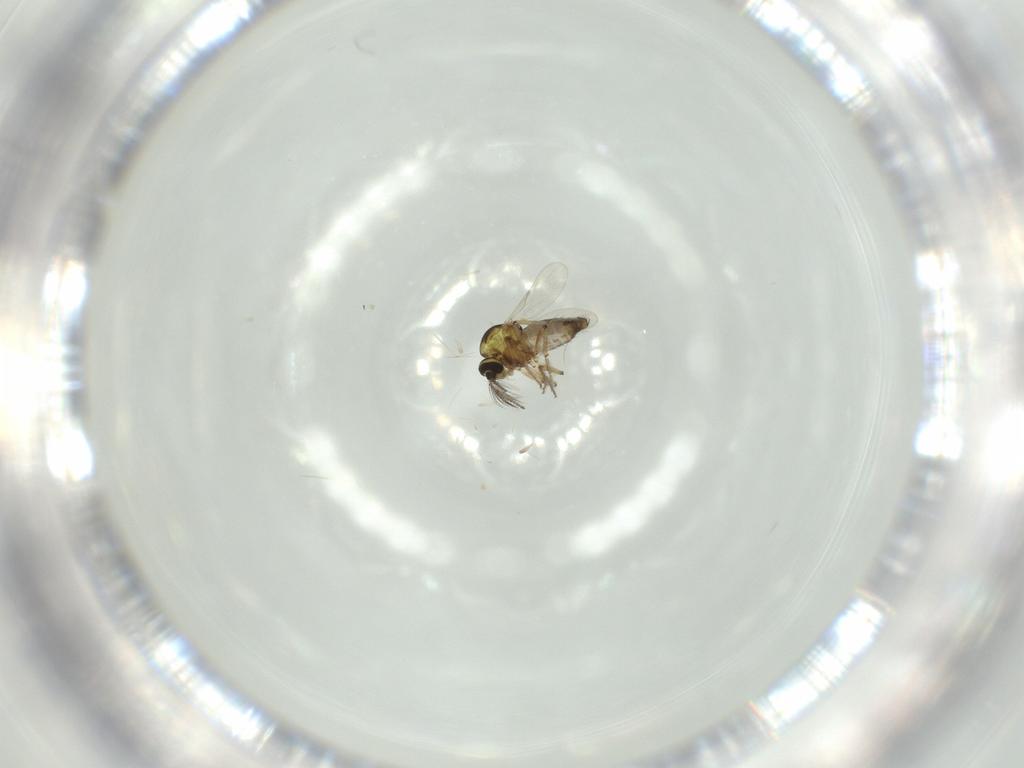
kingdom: Animalia
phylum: Arthropoda
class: Insecta
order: Diptera
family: Ceratopogonidae
